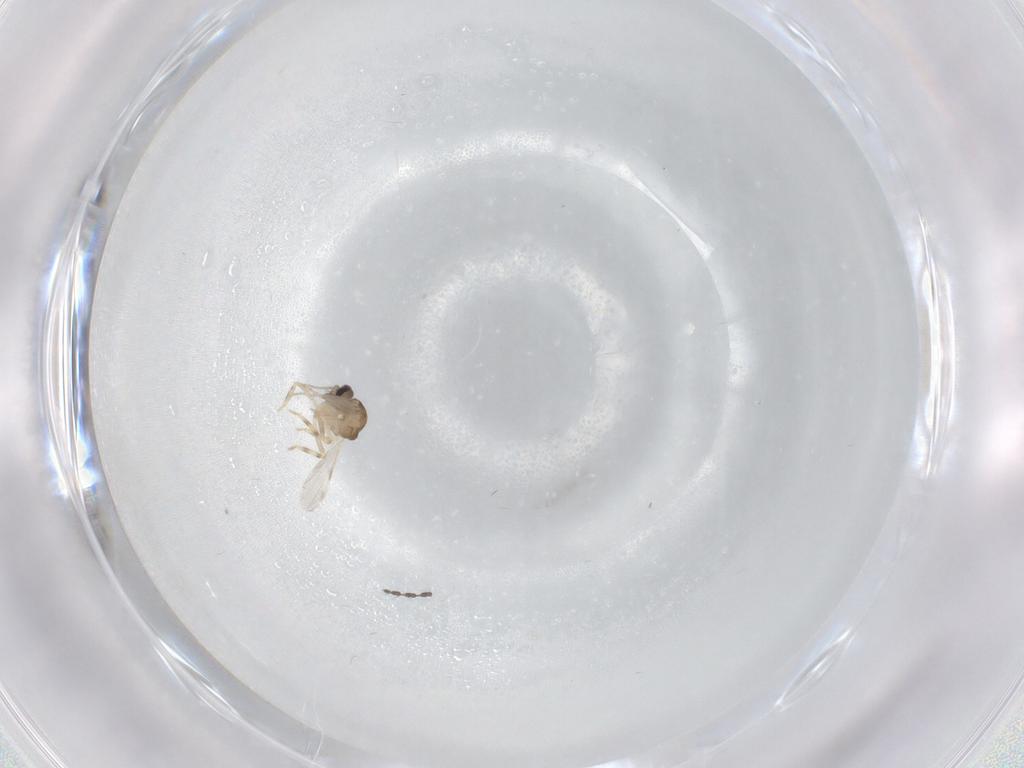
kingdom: Animalia
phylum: Arthropoda
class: Insecta
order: Diptera
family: Ceratopogonidae
